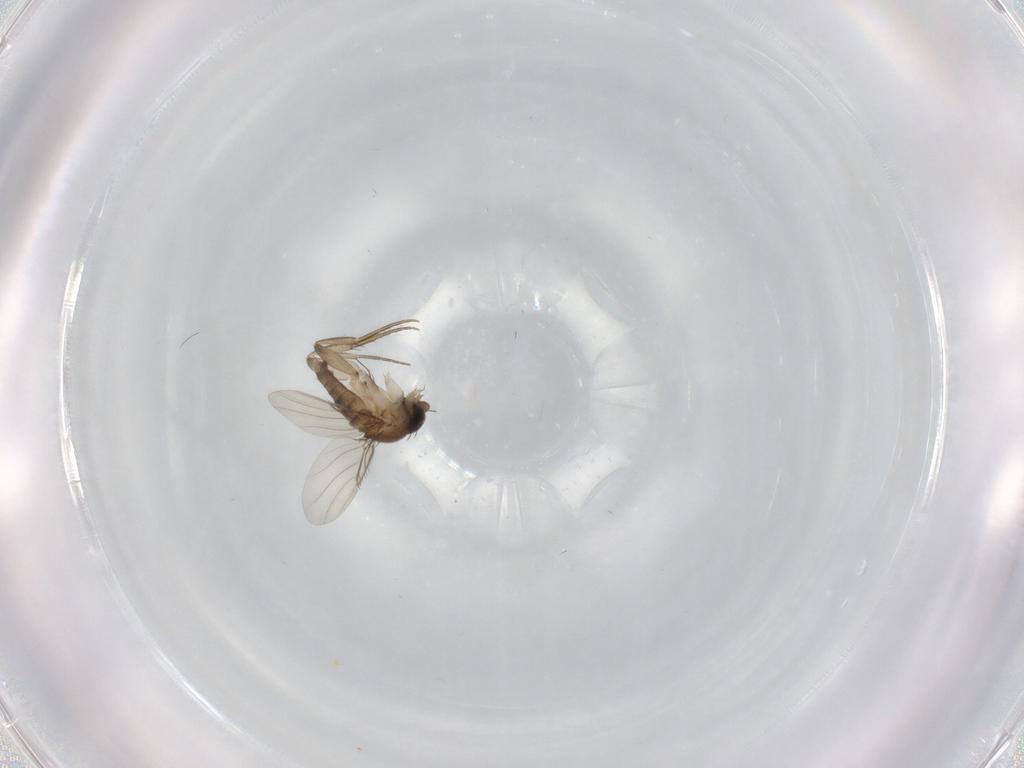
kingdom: Animalia
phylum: Arthropoda
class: Insecta
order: Diptera
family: Phoridae
